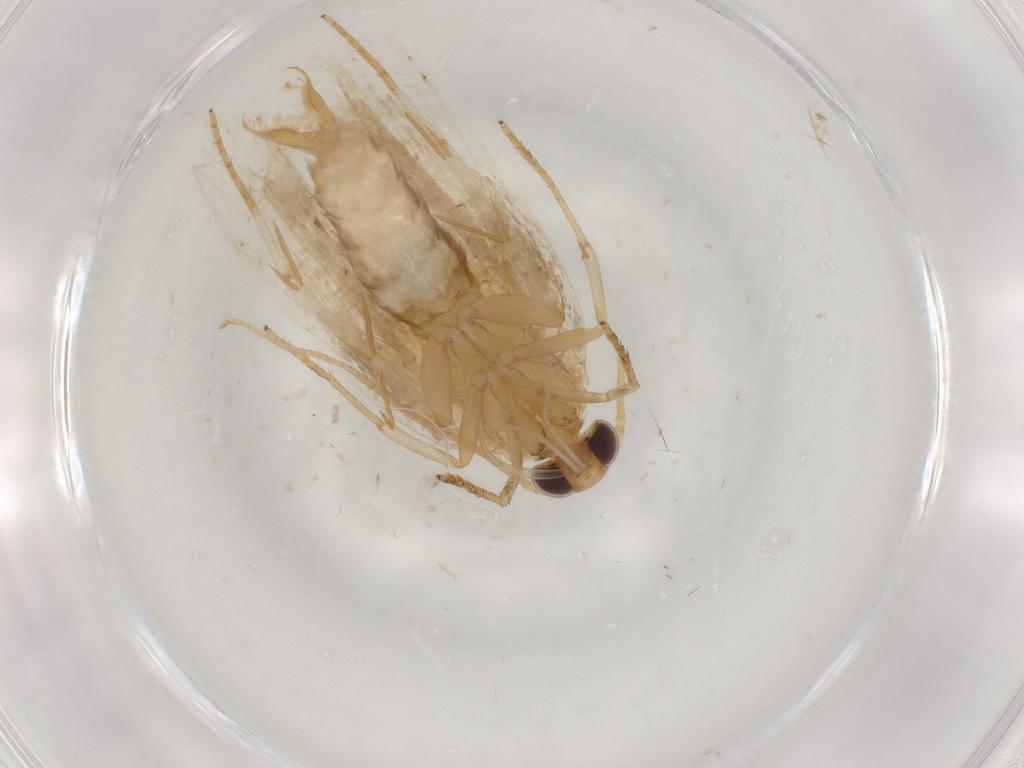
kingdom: Animalia
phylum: Arthropoda
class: Insecta
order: Lepidoptera
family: Depressariidae
